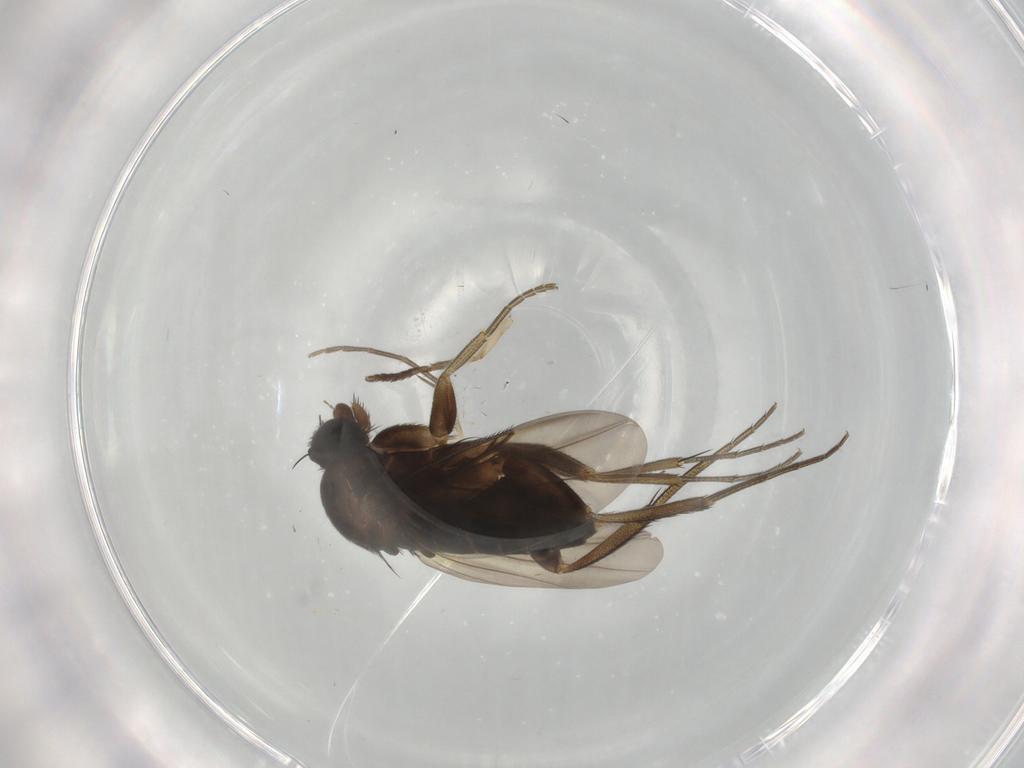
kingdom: Animalia
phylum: Arthropoda
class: Insecta
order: Diptera
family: Phoridae
